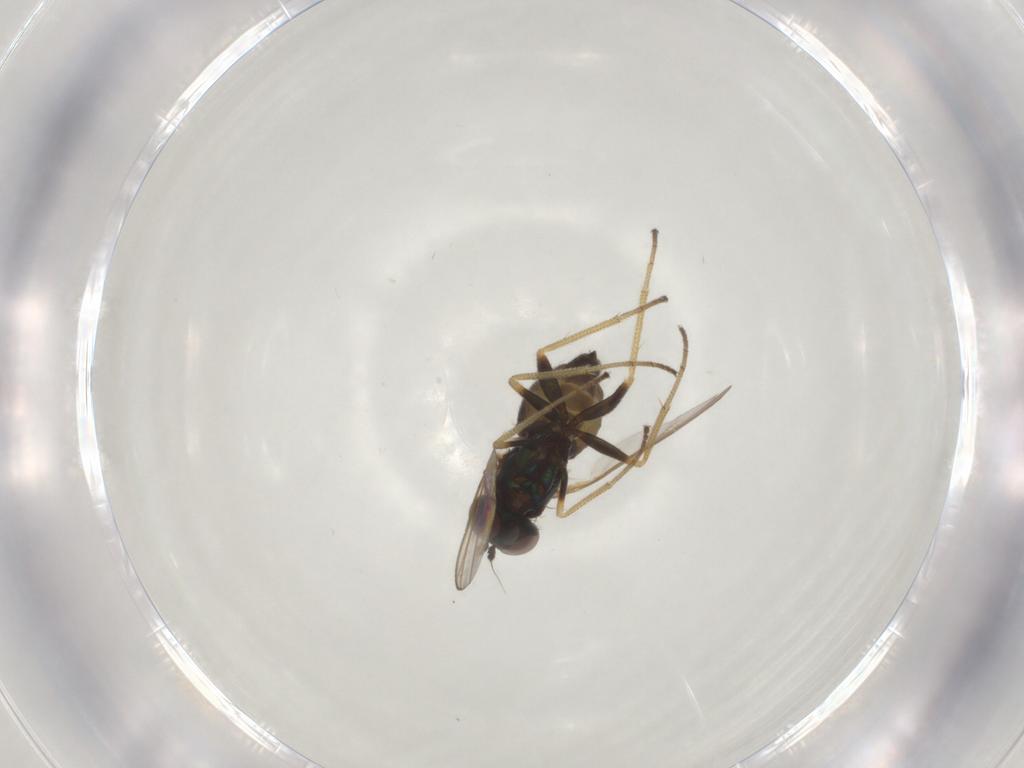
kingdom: Animalia
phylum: Arthropoda
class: Insecta
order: Diptera
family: Dolichopodidae
